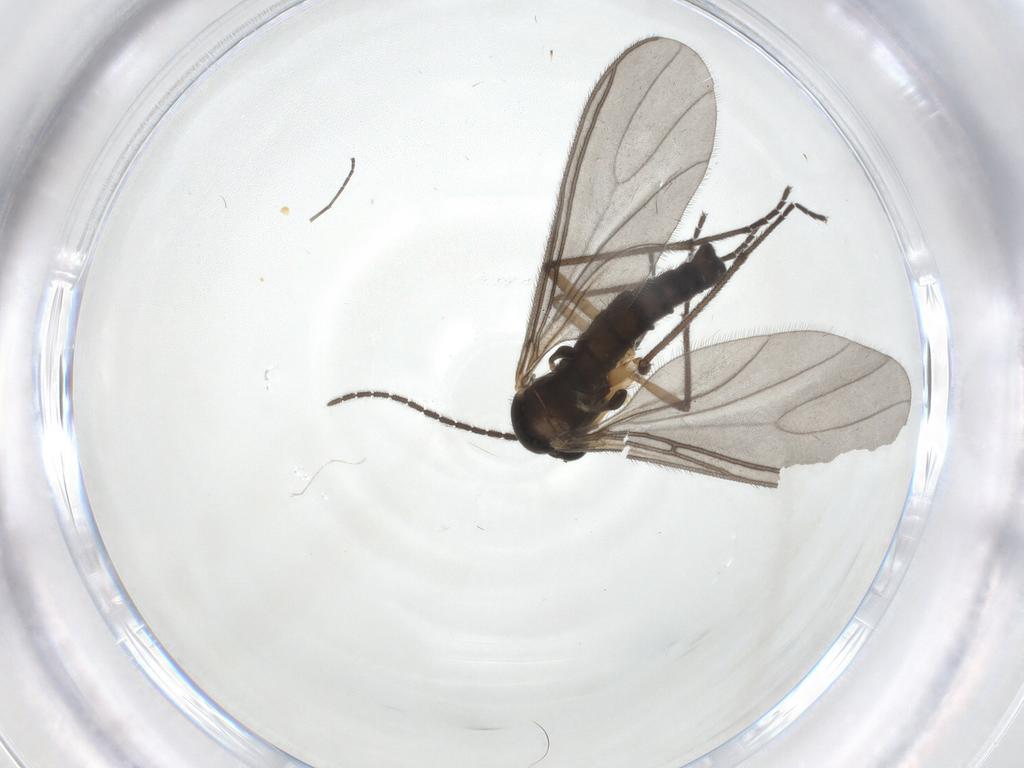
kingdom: Animalia
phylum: Arthropoda
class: Insecta
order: Diptera
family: Sciaridae
